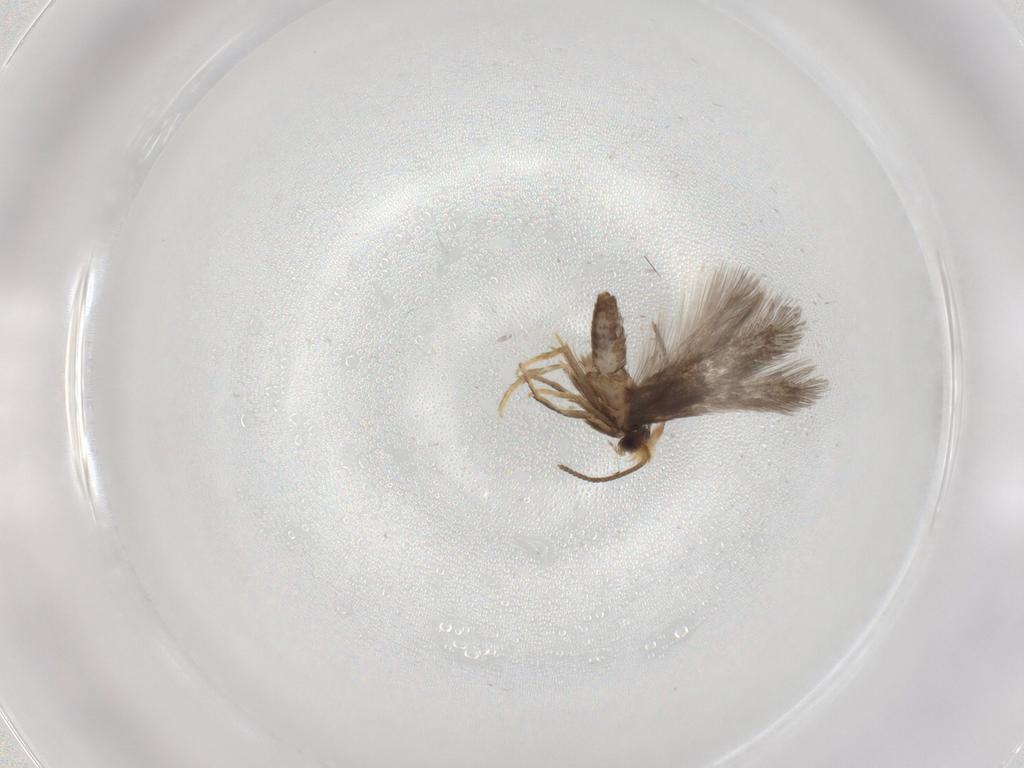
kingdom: Animalia
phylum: Arthropoda
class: Insecta
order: Lepidoptera
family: Nepticulidae
